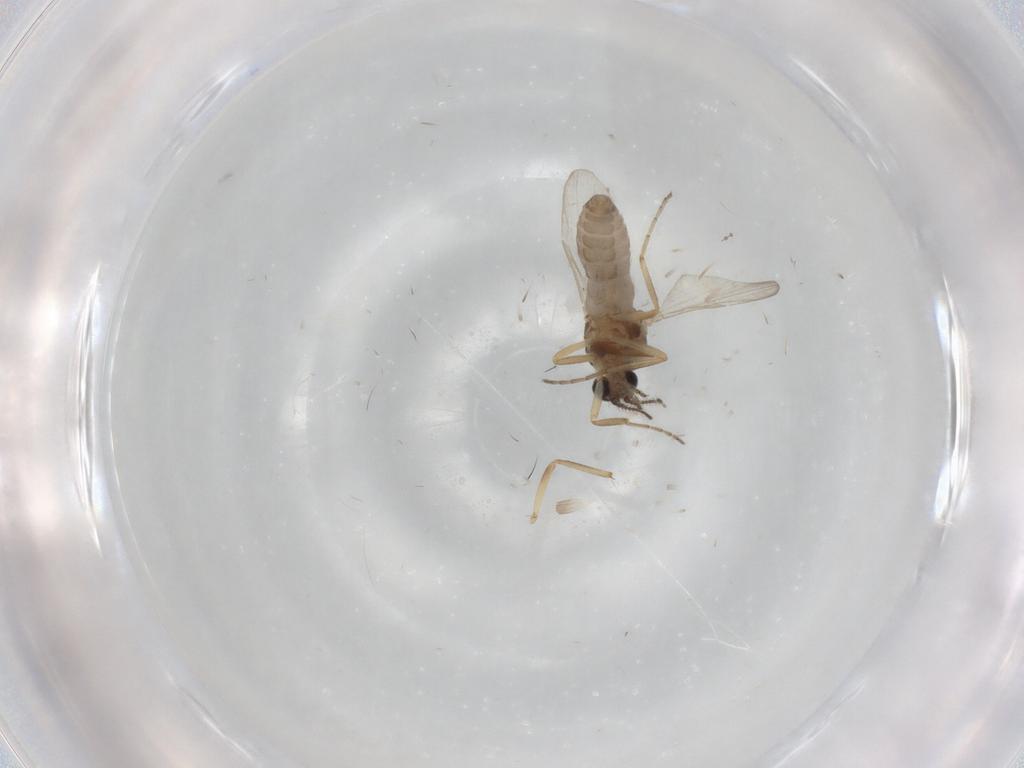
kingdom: Animalia
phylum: Arthropoda
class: Insecta
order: Diptera
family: Ceratopogonidae
